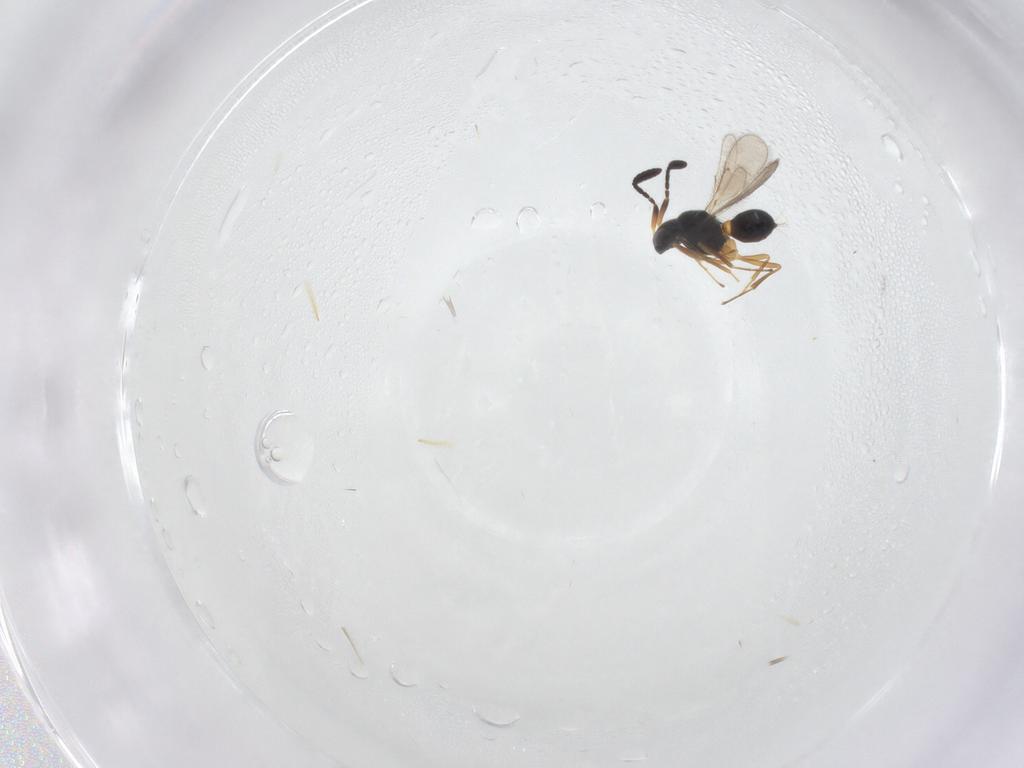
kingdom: Animalia
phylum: Arthropoda
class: Insecta
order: Hymenoptera
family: Scelionidae
